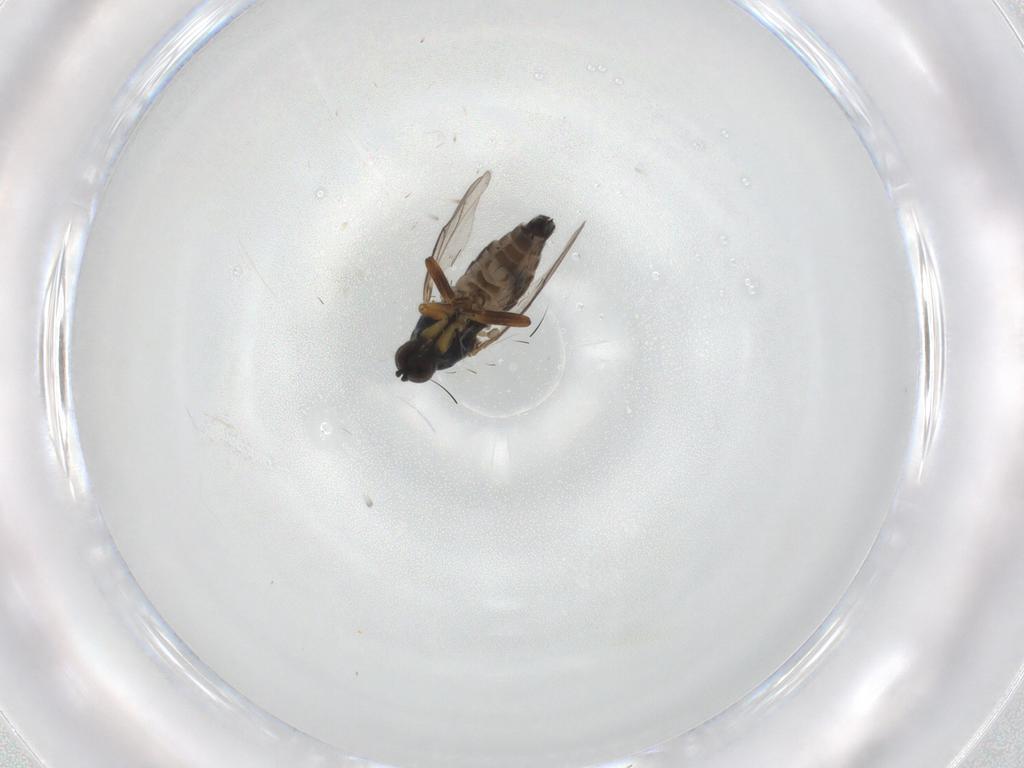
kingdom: Animalia
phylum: Arthropoda
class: Insecta
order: Diptera
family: Hybotidae
